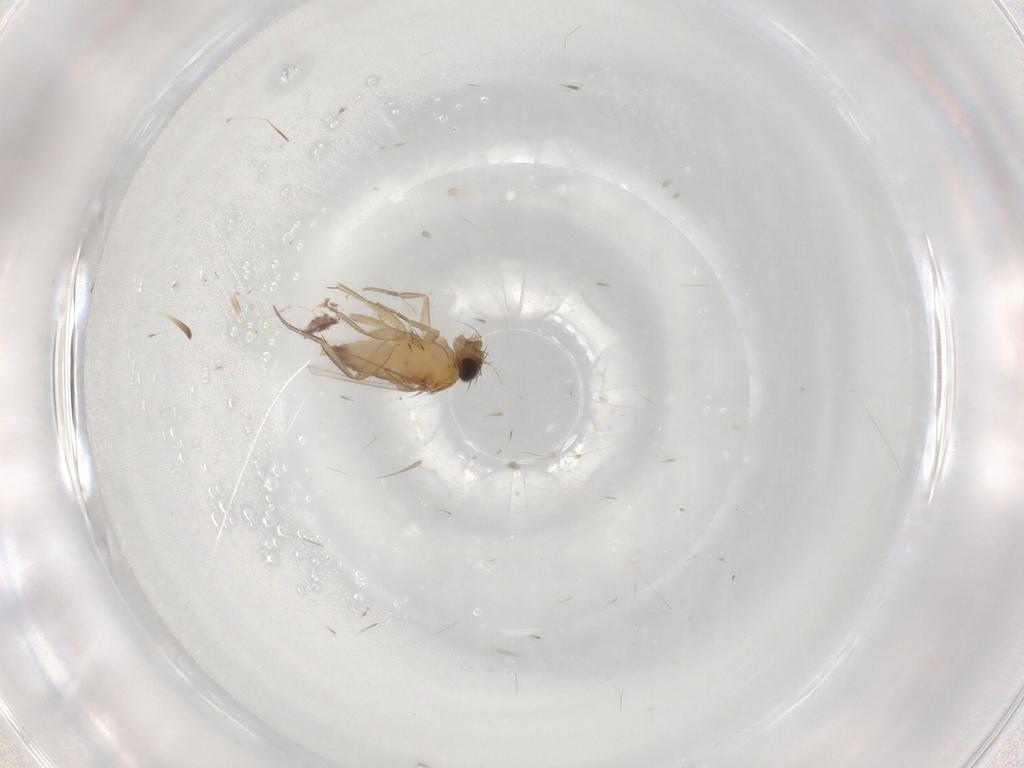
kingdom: Animalia
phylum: Arthropoda
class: Insecta
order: Diptera
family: Phoridae
